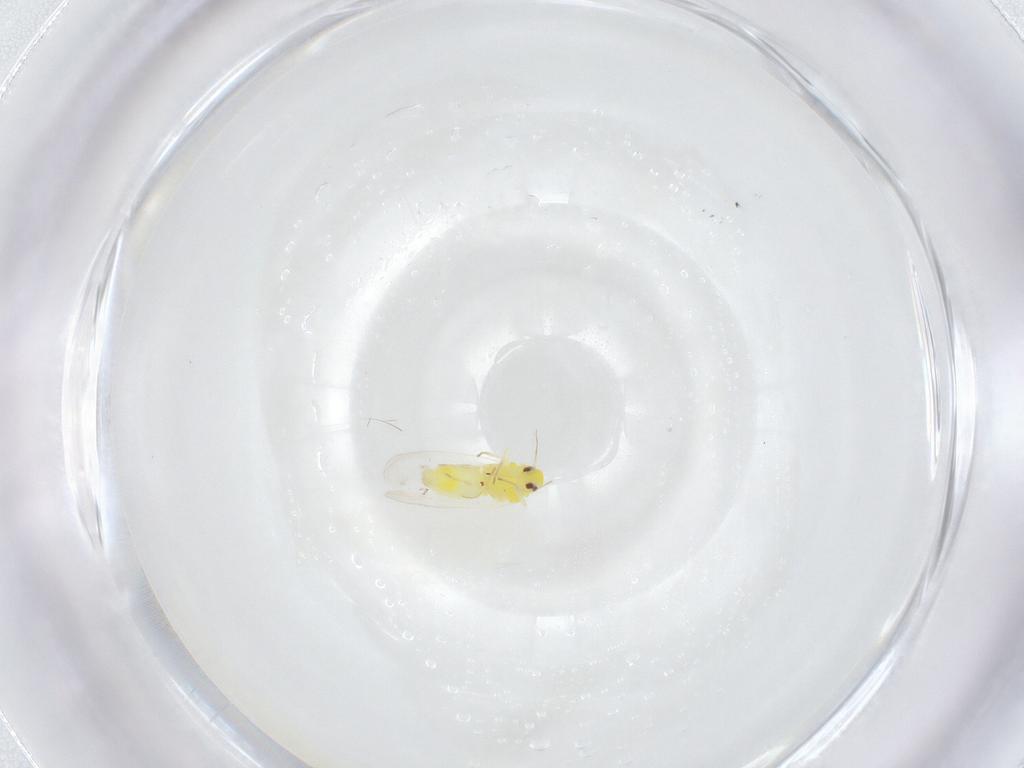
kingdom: Animalia
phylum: Arthropoda
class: Insecta
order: Hemiptera
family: Aleyrodidae
